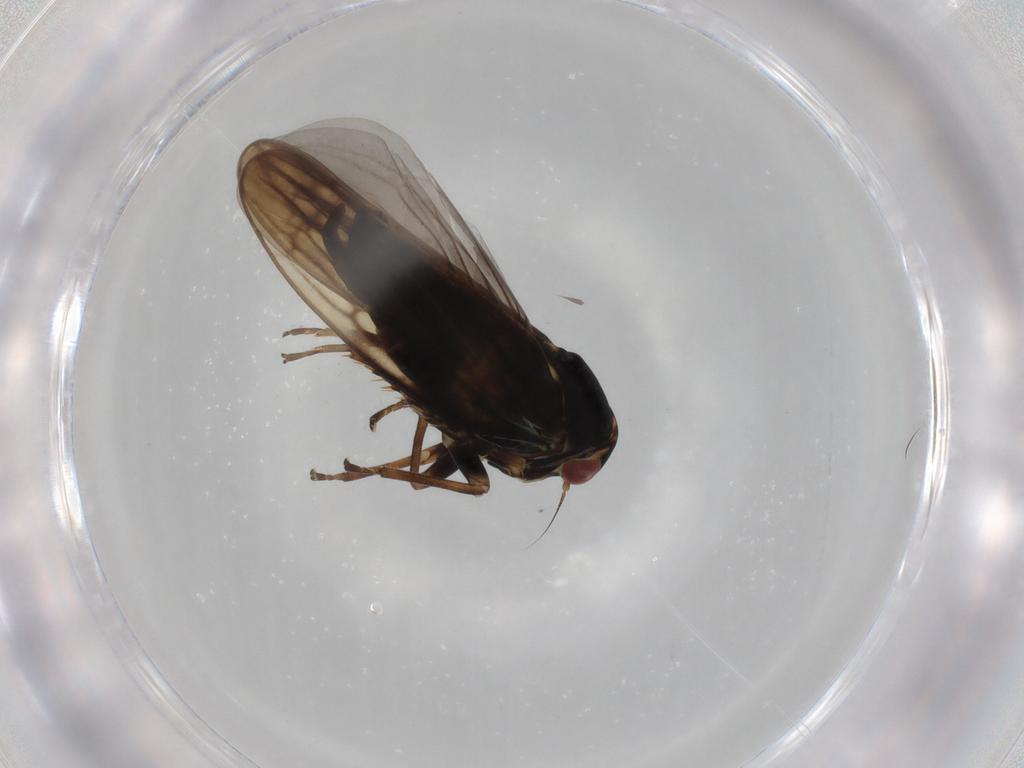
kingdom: Animalia
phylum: Arthropoda
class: Insecta
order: Hemiptera
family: Cicadellidae
